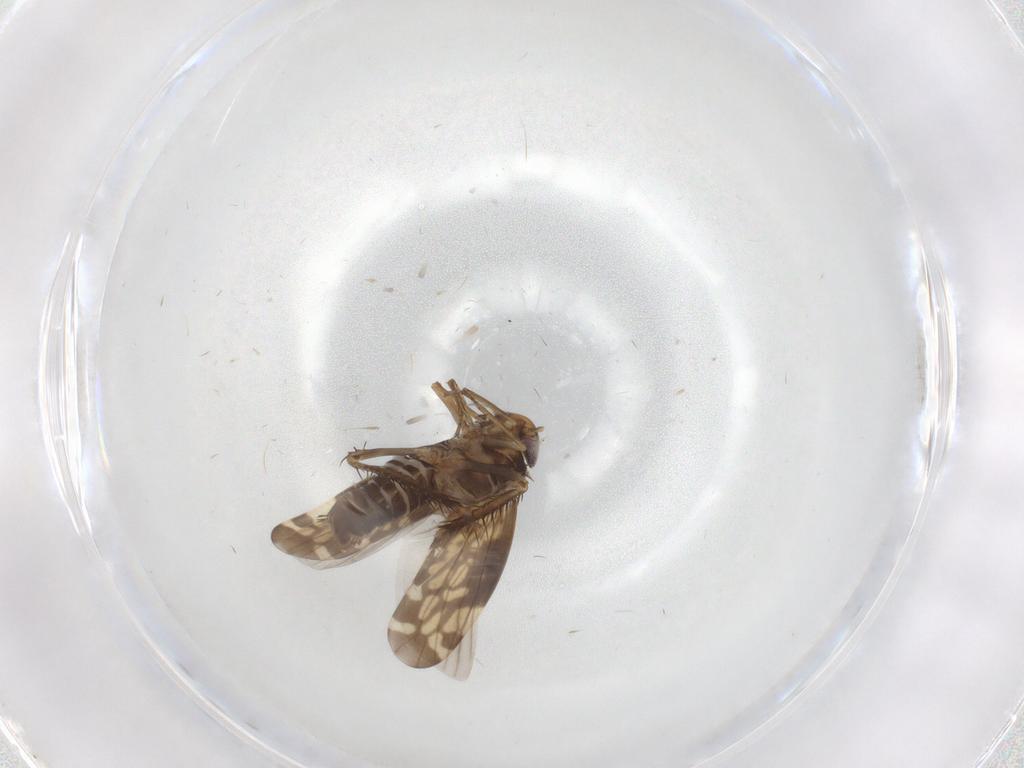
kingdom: Animalia
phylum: Arthropoda
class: Insecta
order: Hemiptera
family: Cicadellidae
